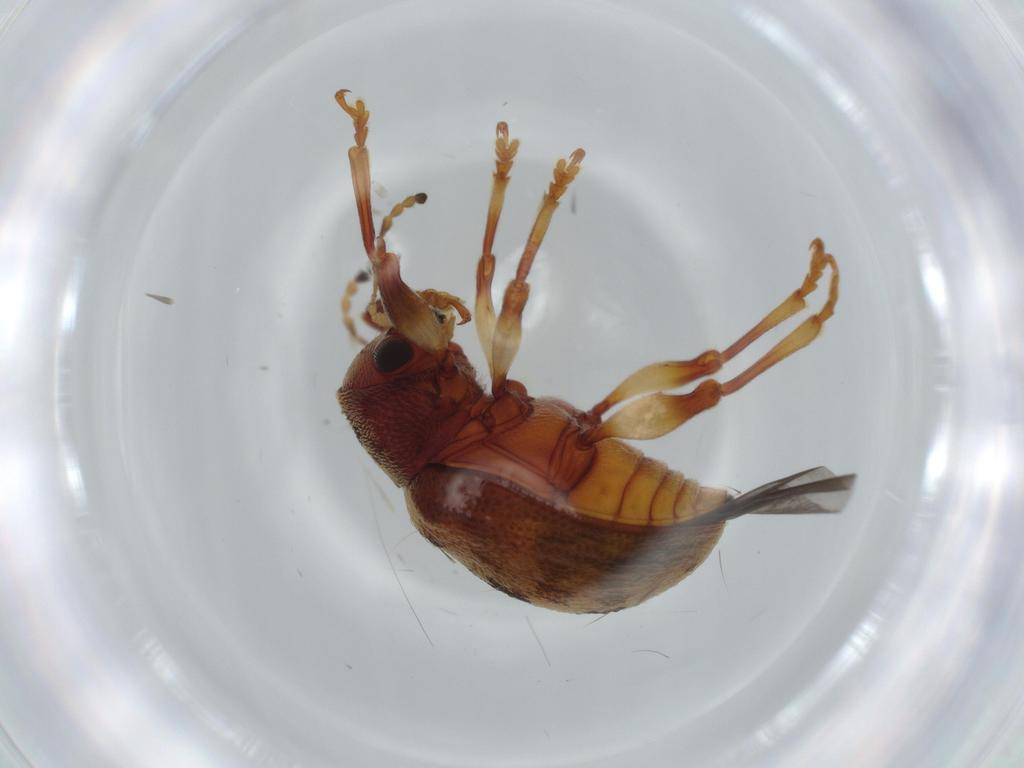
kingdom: Animalia
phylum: Arthropoda
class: Insecta
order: Coleoptera
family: Chrysomelidae
